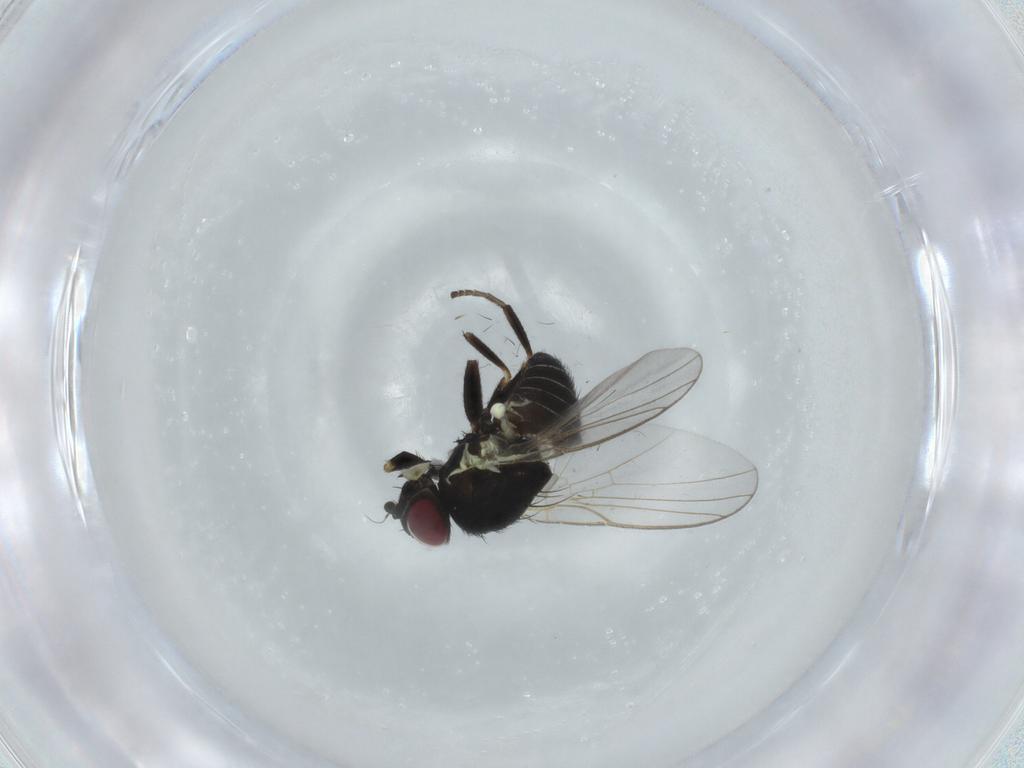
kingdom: Animalia
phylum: Arthropoda
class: Insecta
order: Diptera
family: Agromyzidae
